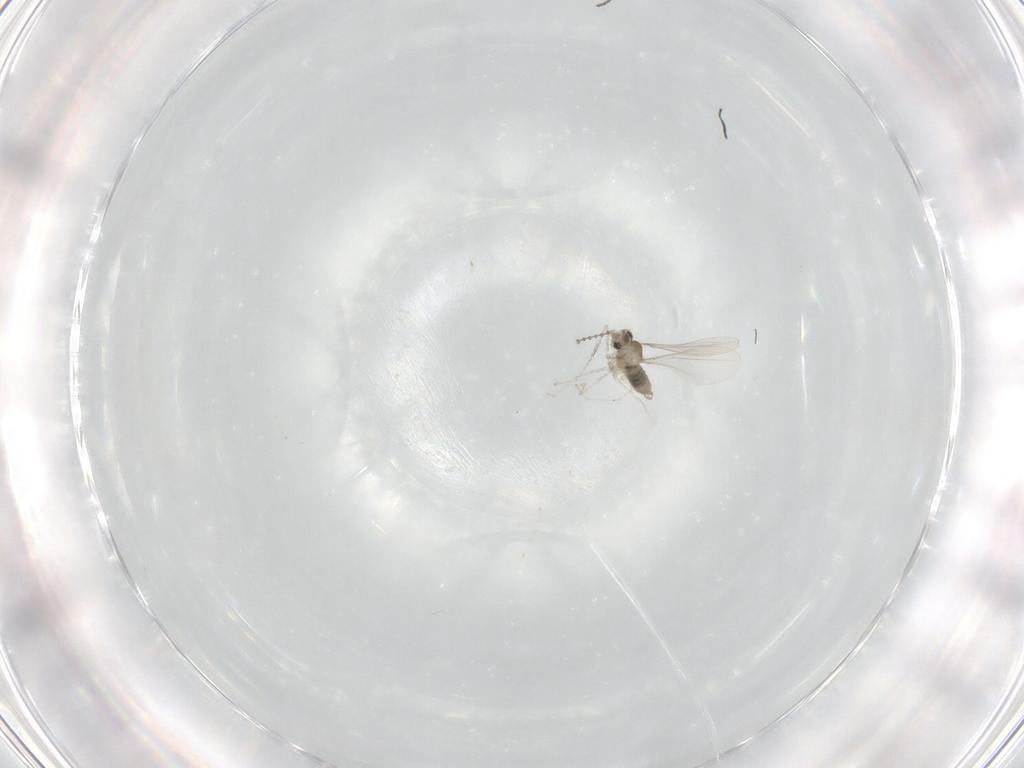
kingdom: Animalia
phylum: Arthropoda
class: Insecta
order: Diptera
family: Cecidomyiidae
